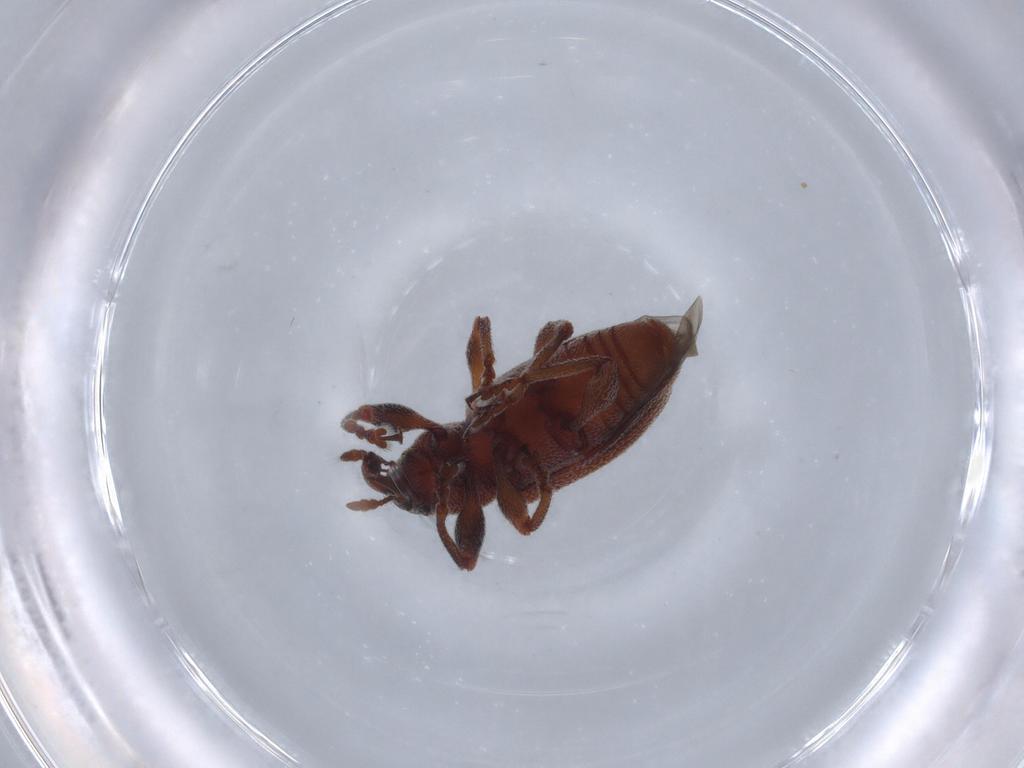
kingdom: Animalia
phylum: Arthropoda
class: Insecta
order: Coleoptera
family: Curculionidae
